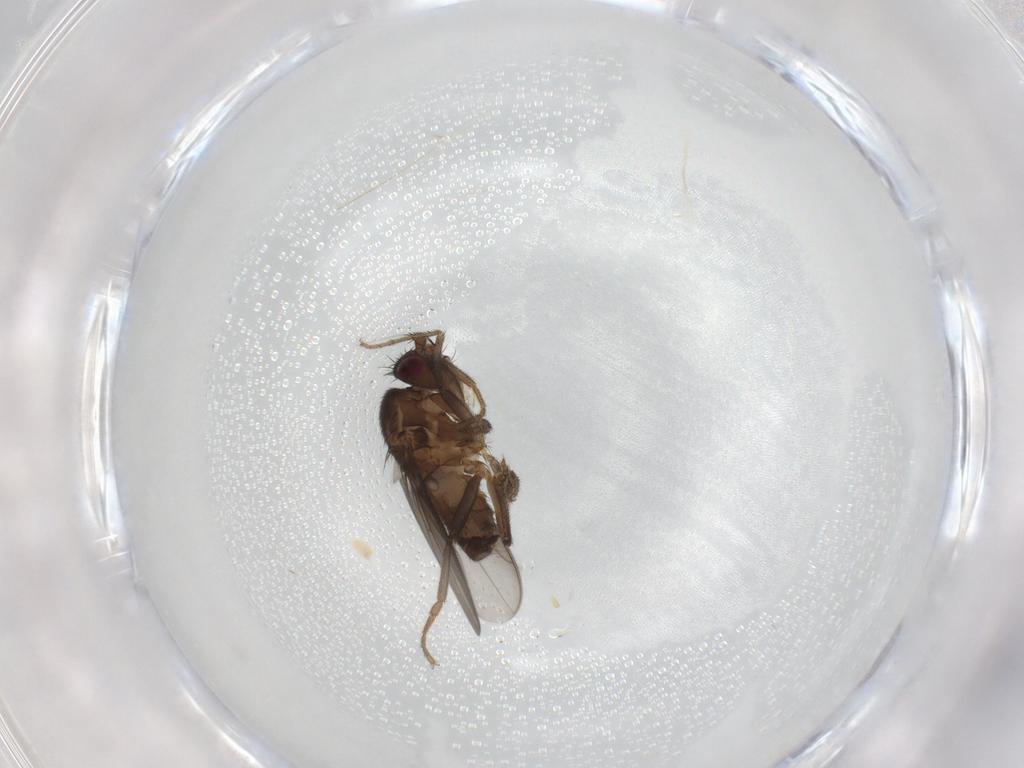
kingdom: Animalia
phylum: Arthropoda
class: Insecta
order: Diptera
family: Sphaeroceridae
